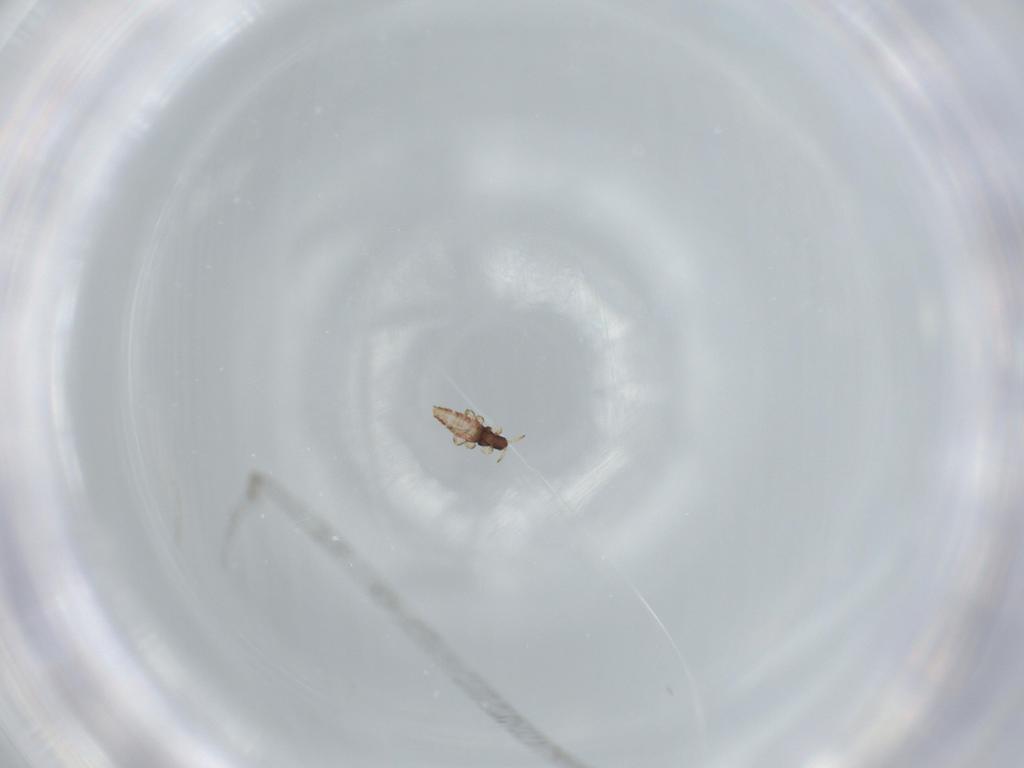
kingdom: Animalia
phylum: Arthropoda
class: Insecta
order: Thysanoptera
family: Phlaeothripidae
